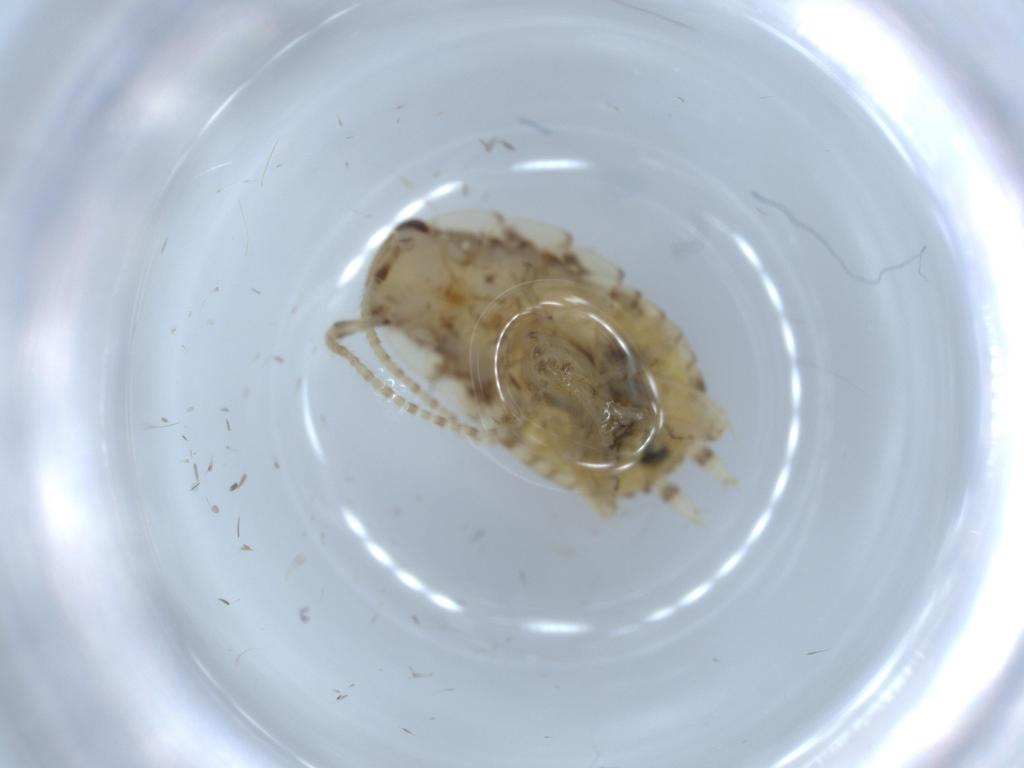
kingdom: Animalia
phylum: Arthropoda
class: Insecta
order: Blattodea
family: Ectobiidae
